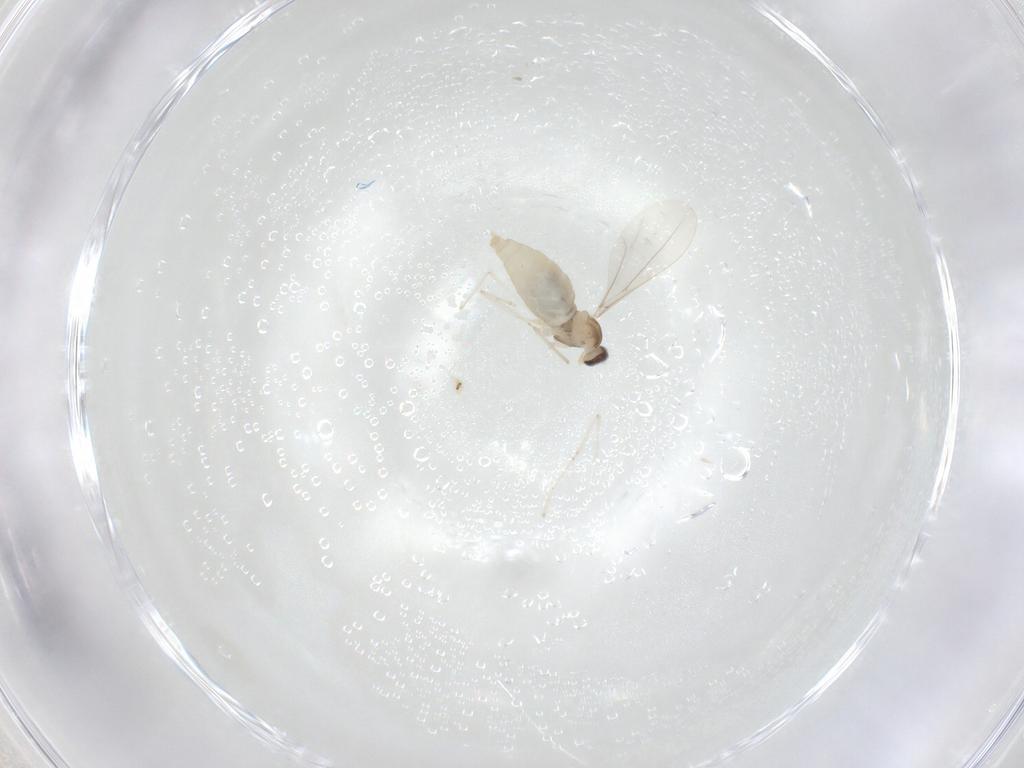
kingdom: Animalia
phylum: Arthropoda
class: Insecta
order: Diptera
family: Cecidomyiidae
